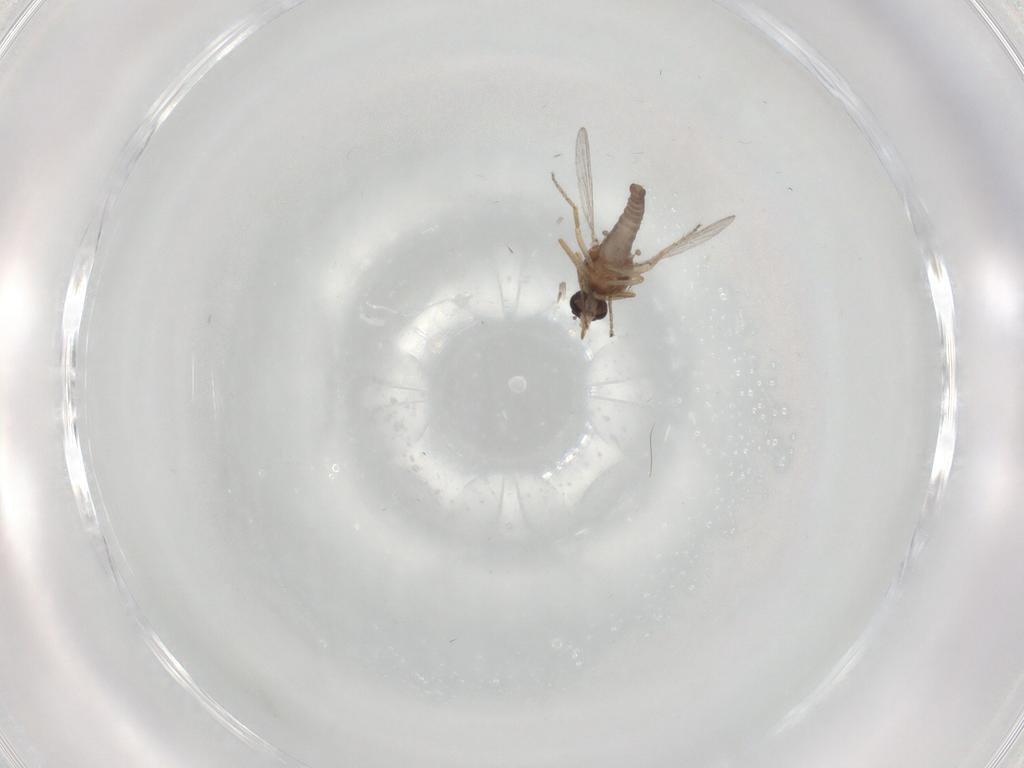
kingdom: Animalia
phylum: Arthropoda
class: Insecta
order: Diptera
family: Ceratopogonidae
